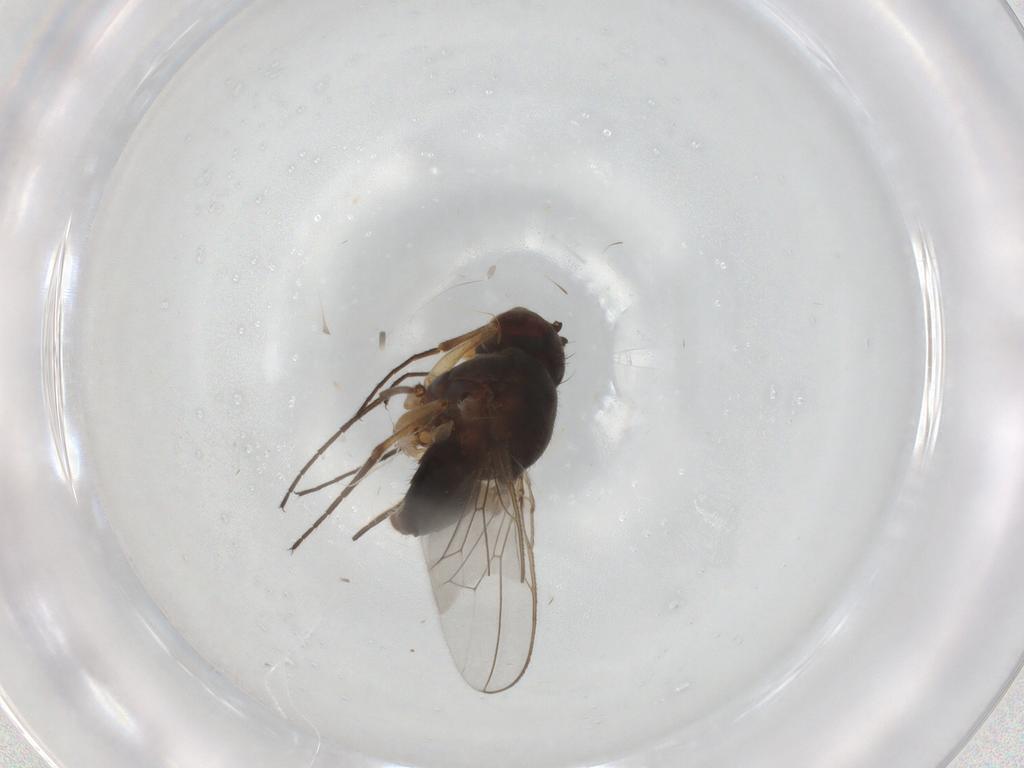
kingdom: Animalia
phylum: Arthropoda
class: Insecta
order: Diptera
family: Ephydridae
